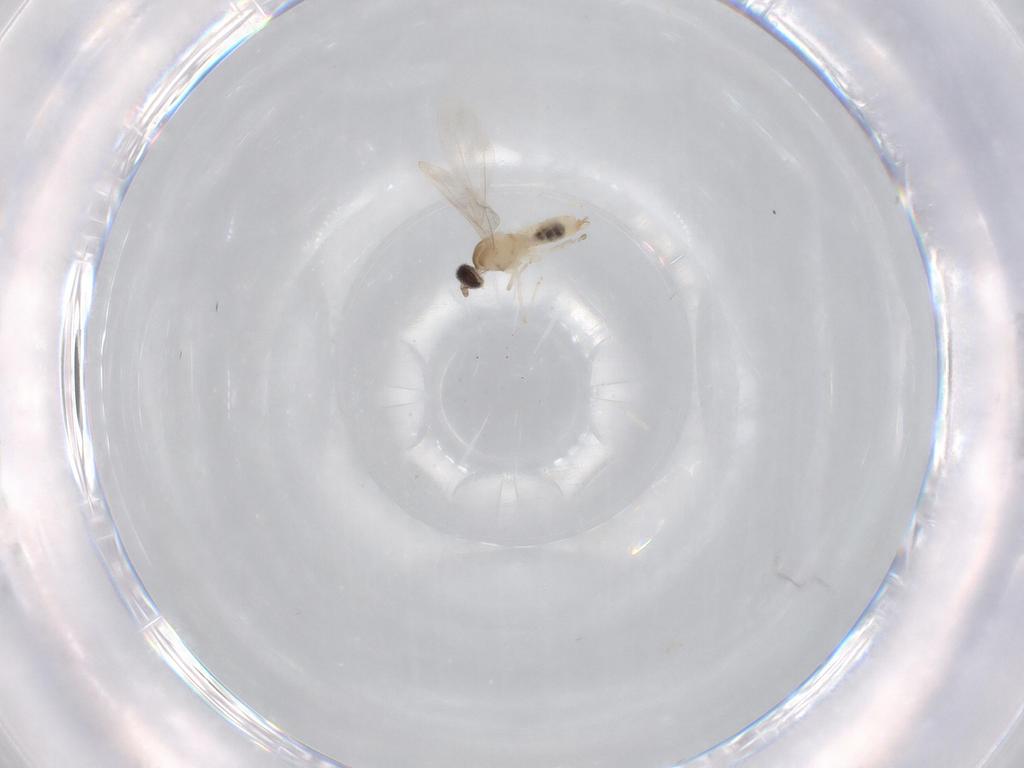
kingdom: Animalia
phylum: Arthropoda
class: Insecta
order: Diptera
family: Cecidomyiidae
